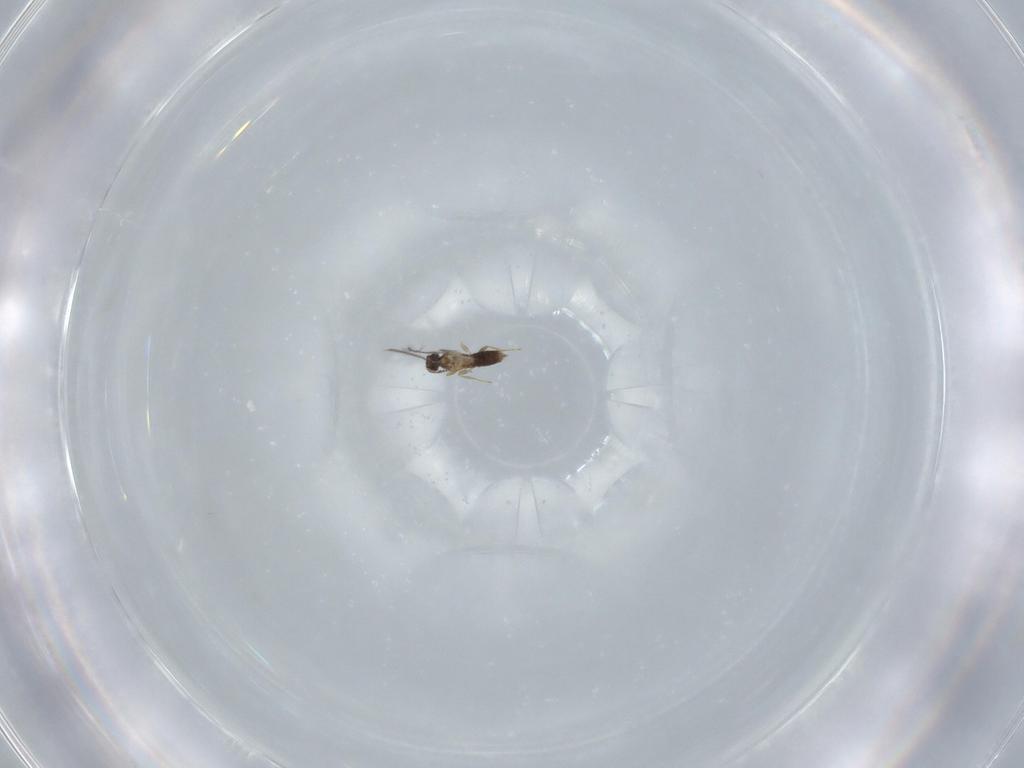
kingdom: Animalia
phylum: Arthropoda
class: Insecta
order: Hymenoptera
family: Mymaridae
